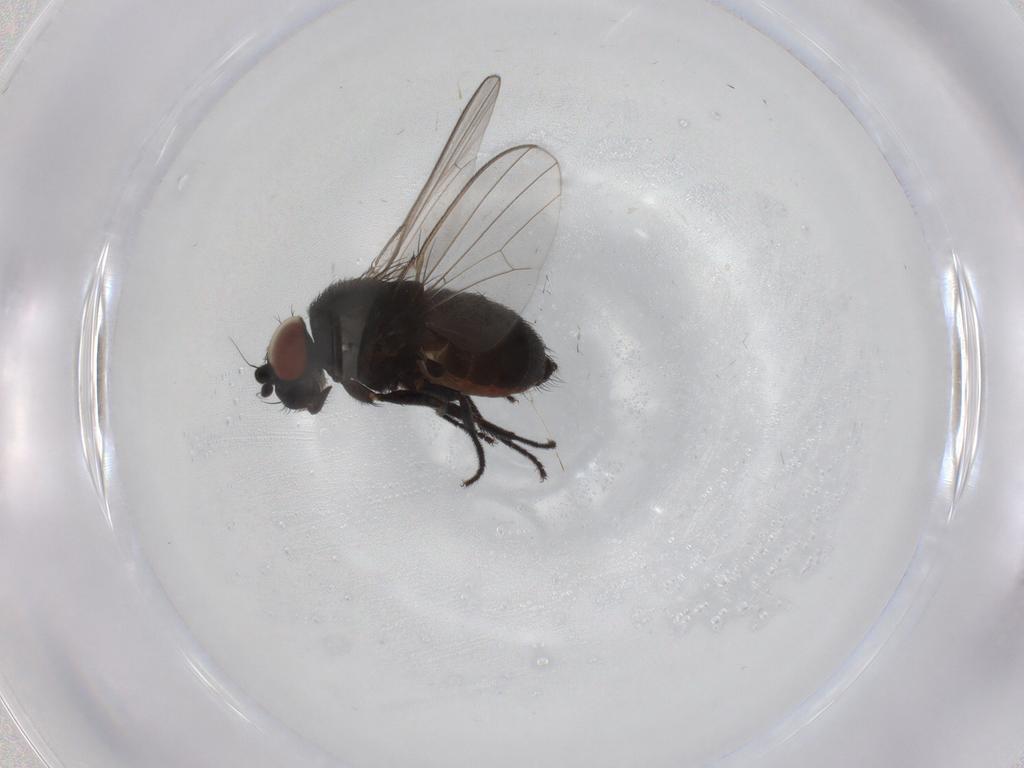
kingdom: Animalia
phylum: Arthropoda
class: Insecta
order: Diptera
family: Milichiidae
